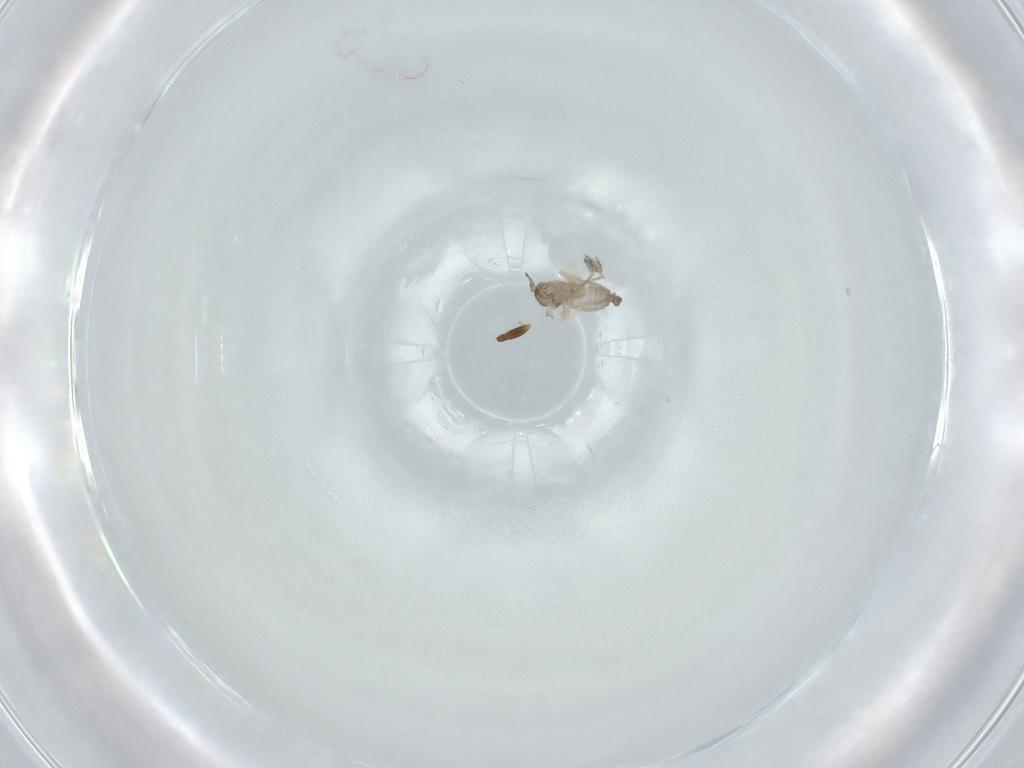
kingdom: Animalia
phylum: Arthropoda
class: Insecta
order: Diptera
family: Cecidomyiidae
